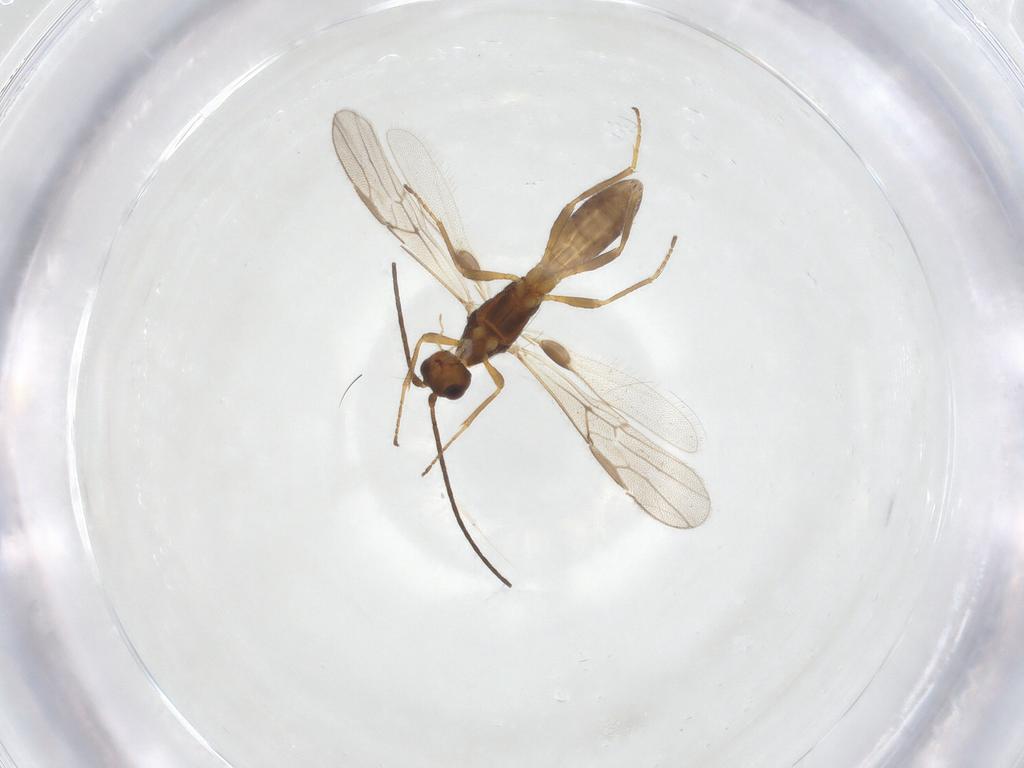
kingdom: Animalia
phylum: Arthropoda
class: Insecta
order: Hymenoptera
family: Braconidae
